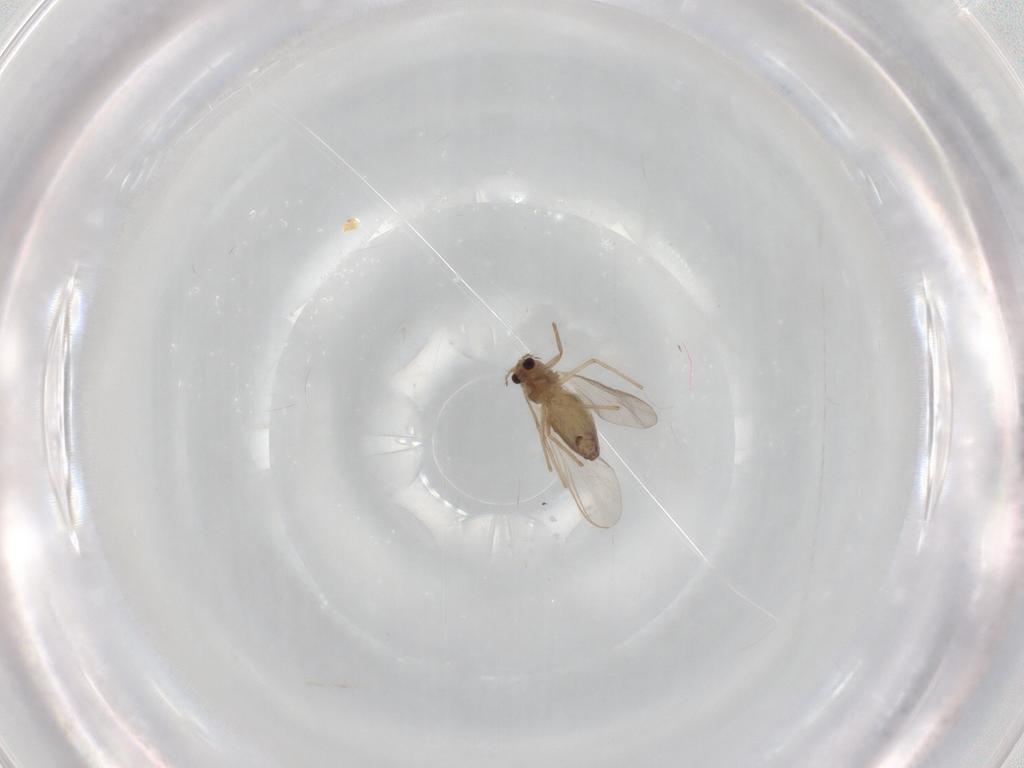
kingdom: Animalia
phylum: Arthropoda
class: Insecta
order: Diptera
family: Chironomidae
